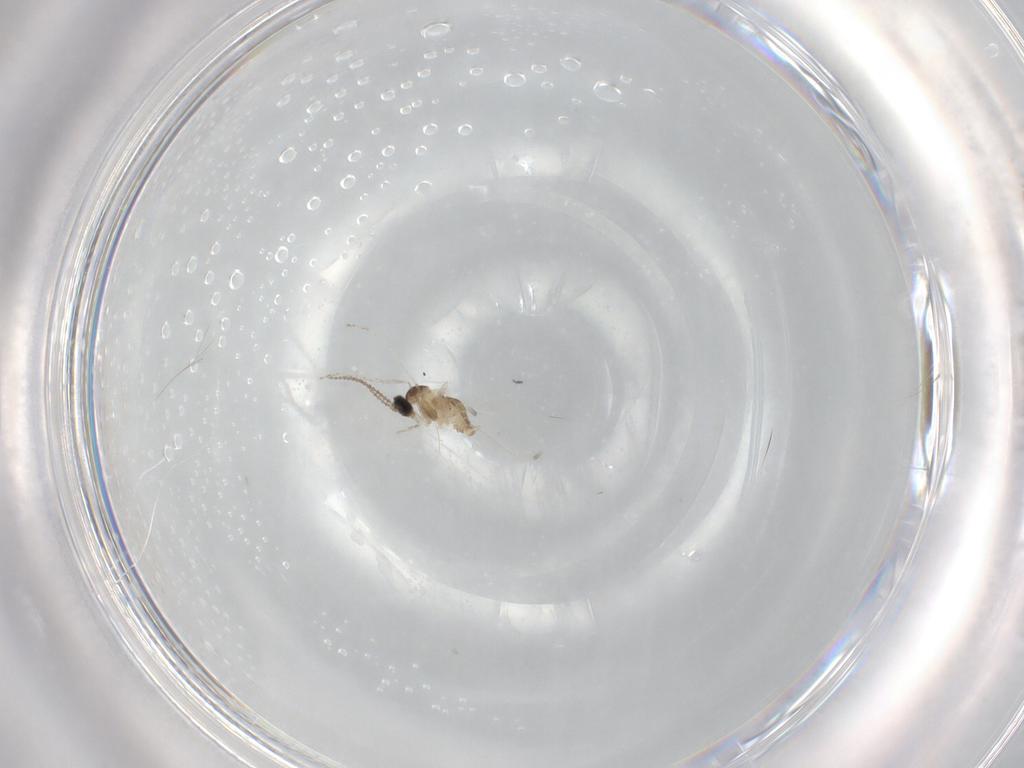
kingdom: Animalia
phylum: Arthropoda
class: Insecta
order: Diptera
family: Cecidomyiidae
